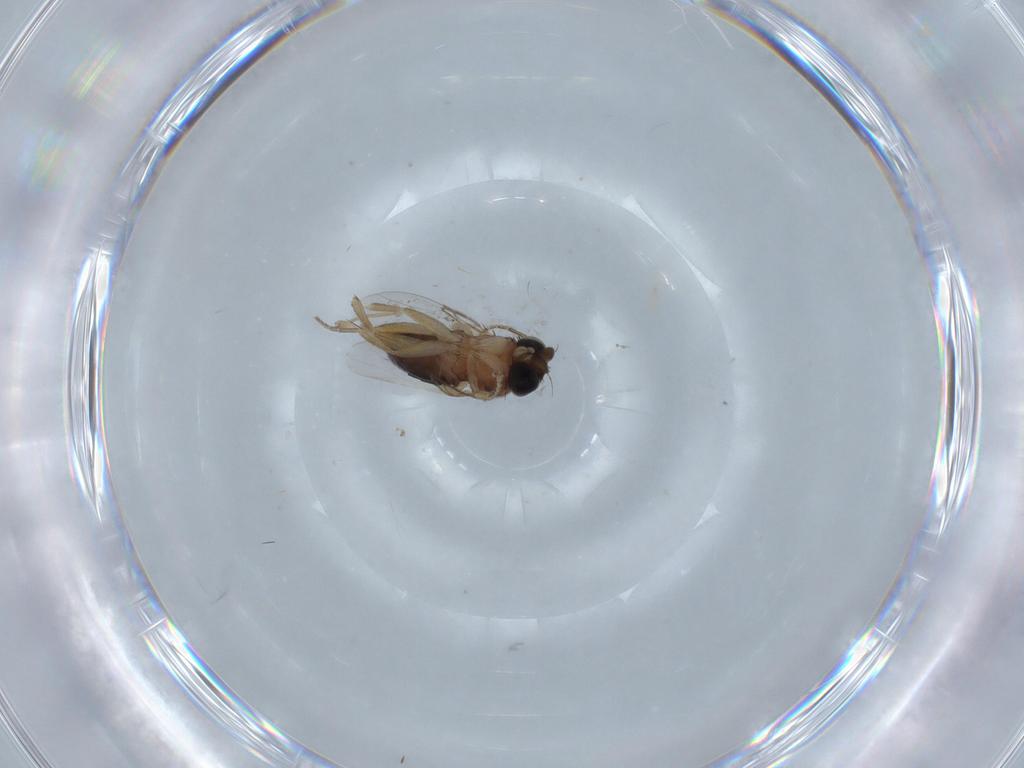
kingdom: Animalia
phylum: Arthropoda
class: Insecta
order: Diptera
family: Phoridae
